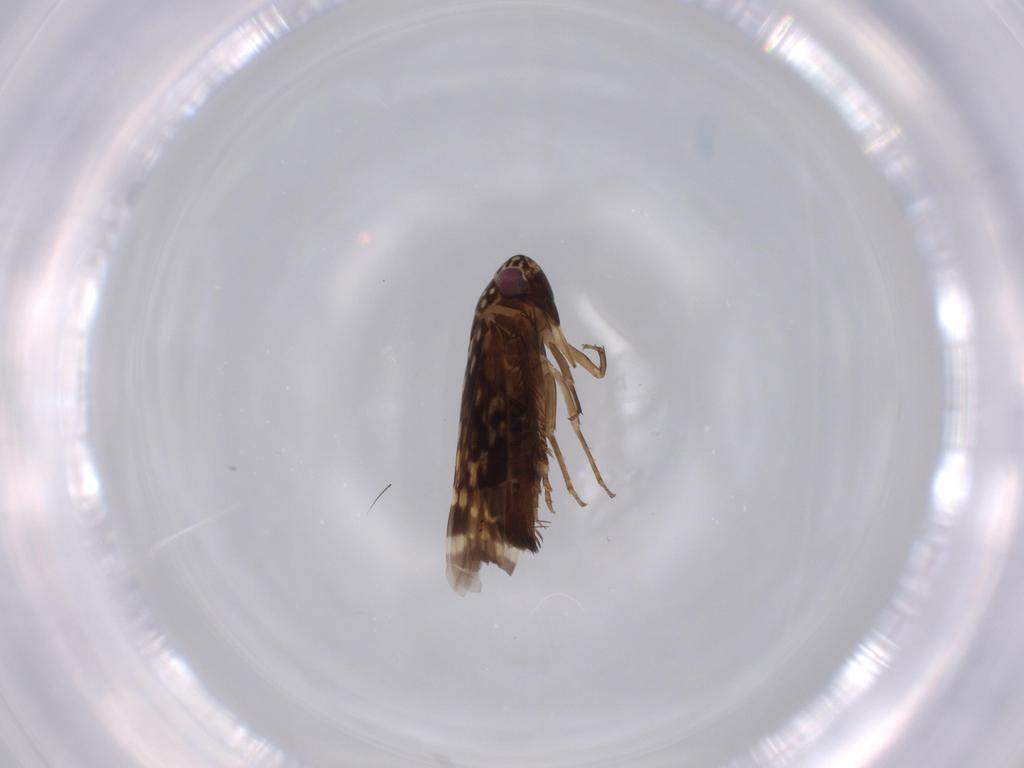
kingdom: Animalia
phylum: Arthropoda
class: Insecta
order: Hemiptera
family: Cicadellidae
